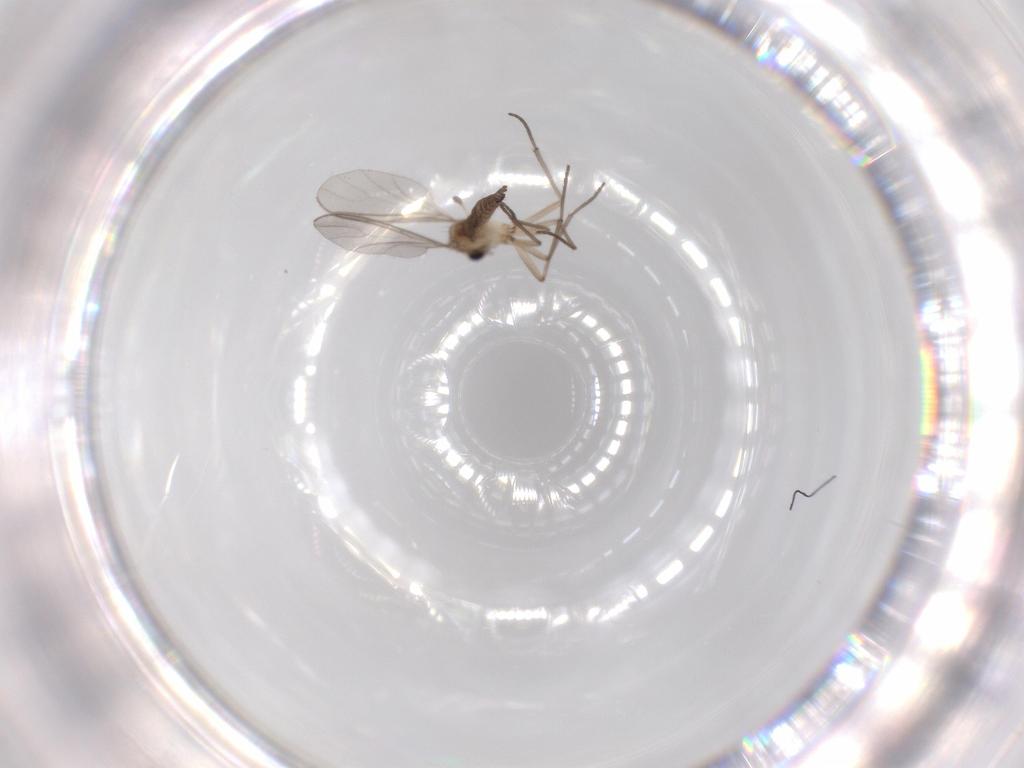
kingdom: Animalia
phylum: Arthropoda
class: Insecta
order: Diptera
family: Sciaridae
